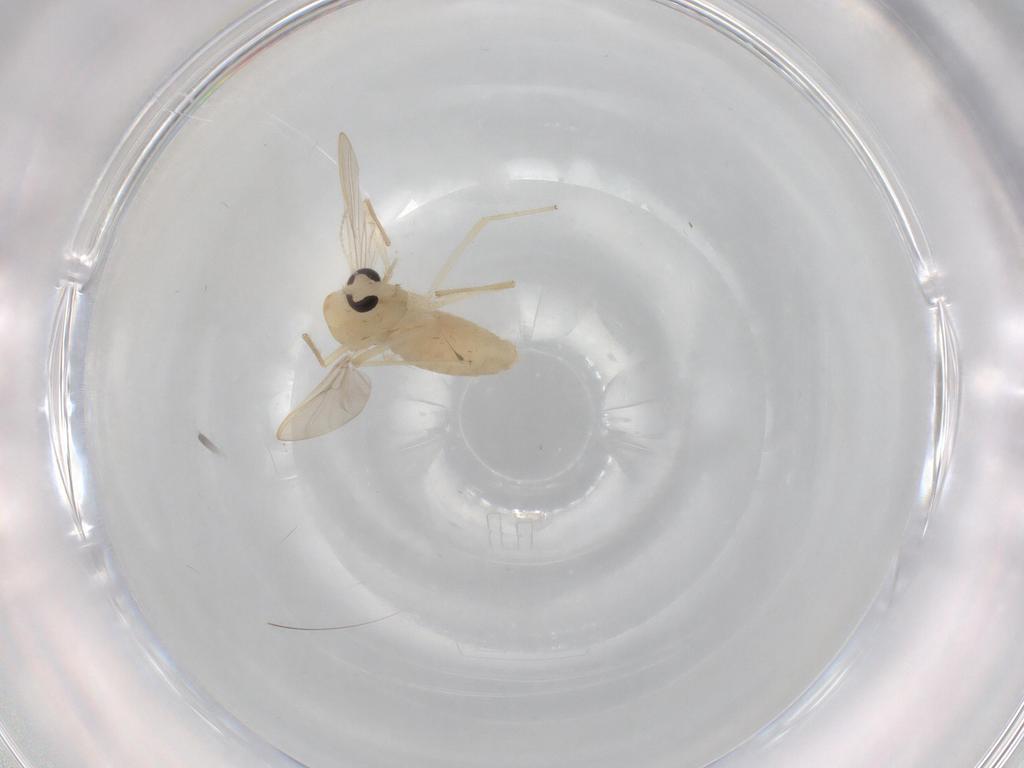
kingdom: Animalia
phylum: Arthropoda
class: Insecta
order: Diptera
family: Chironomidae
